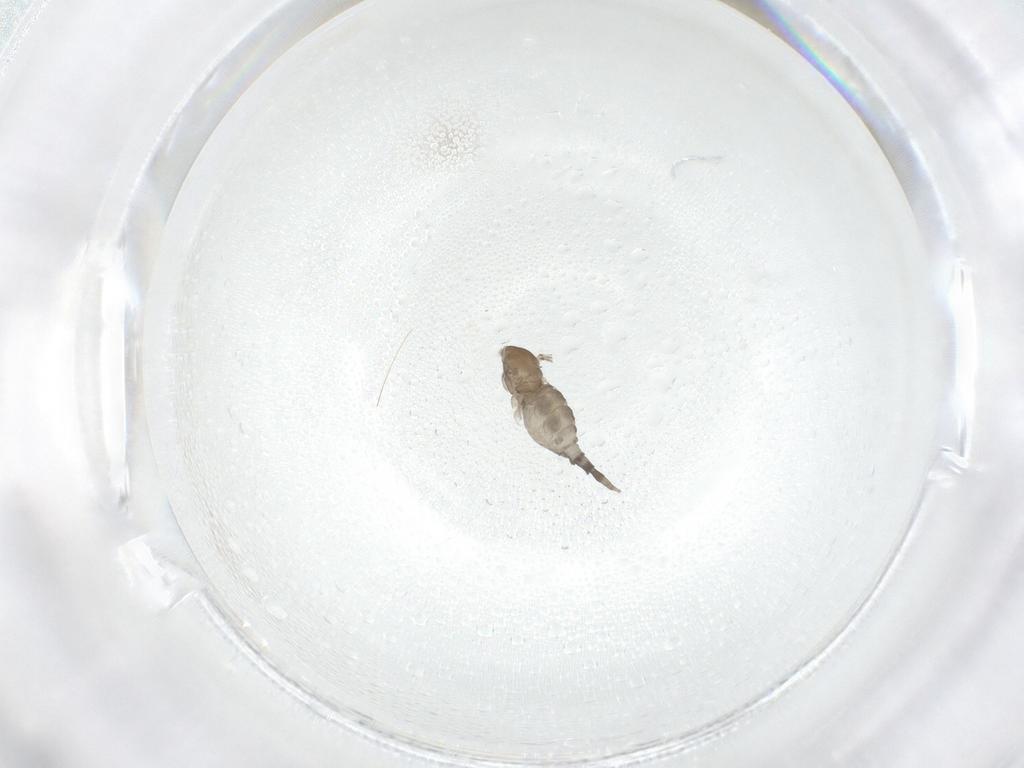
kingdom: Animalia
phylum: Arthropoda
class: Insecta
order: Diptera
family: Cecidomyiidae
